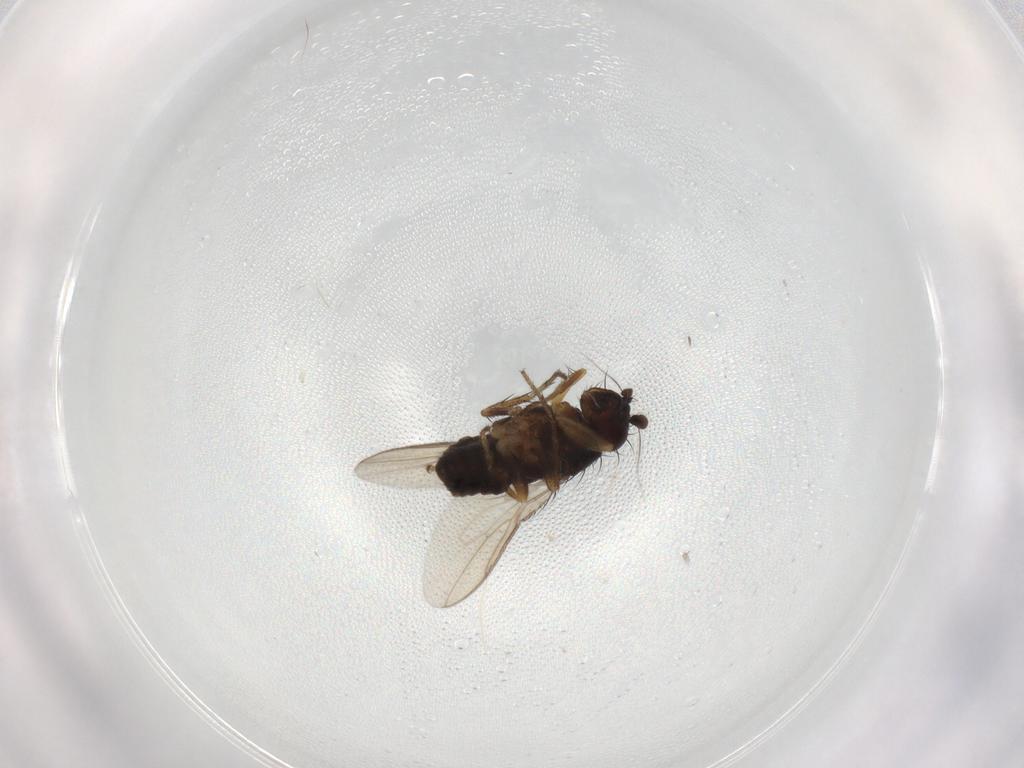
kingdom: Animalia
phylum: Arthropoda
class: Insecta
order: Diptera
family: Sphaeroceridae
